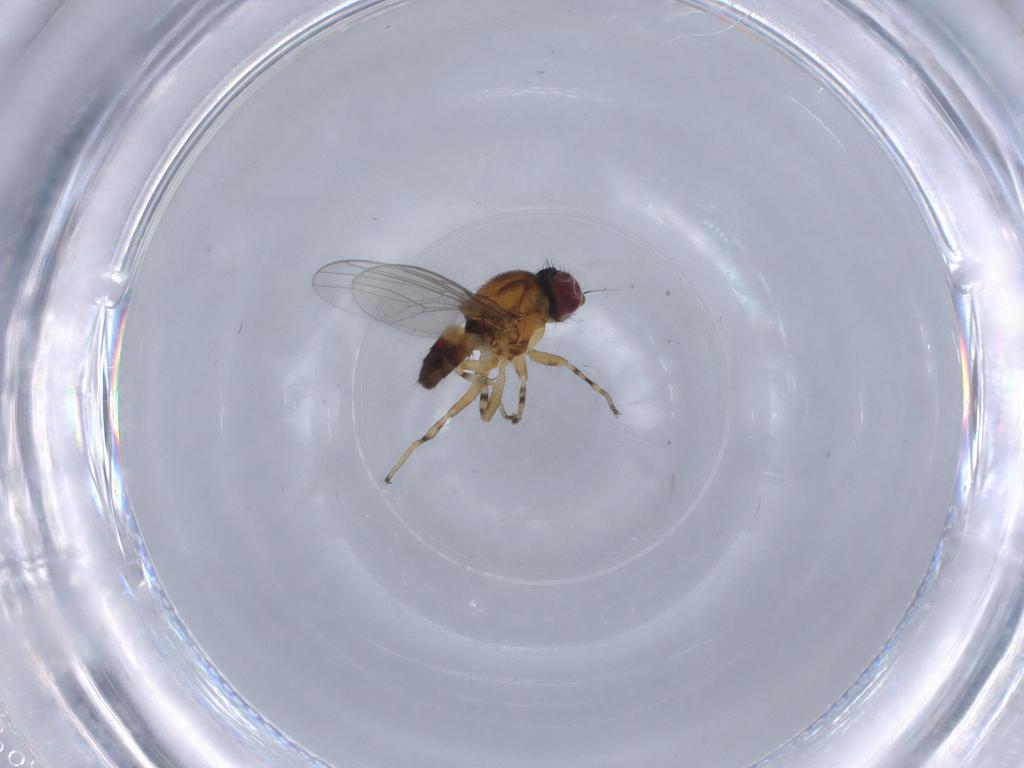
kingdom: Animalia
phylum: Arthropoda
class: Insecta
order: Diptera
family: Chloropidae
